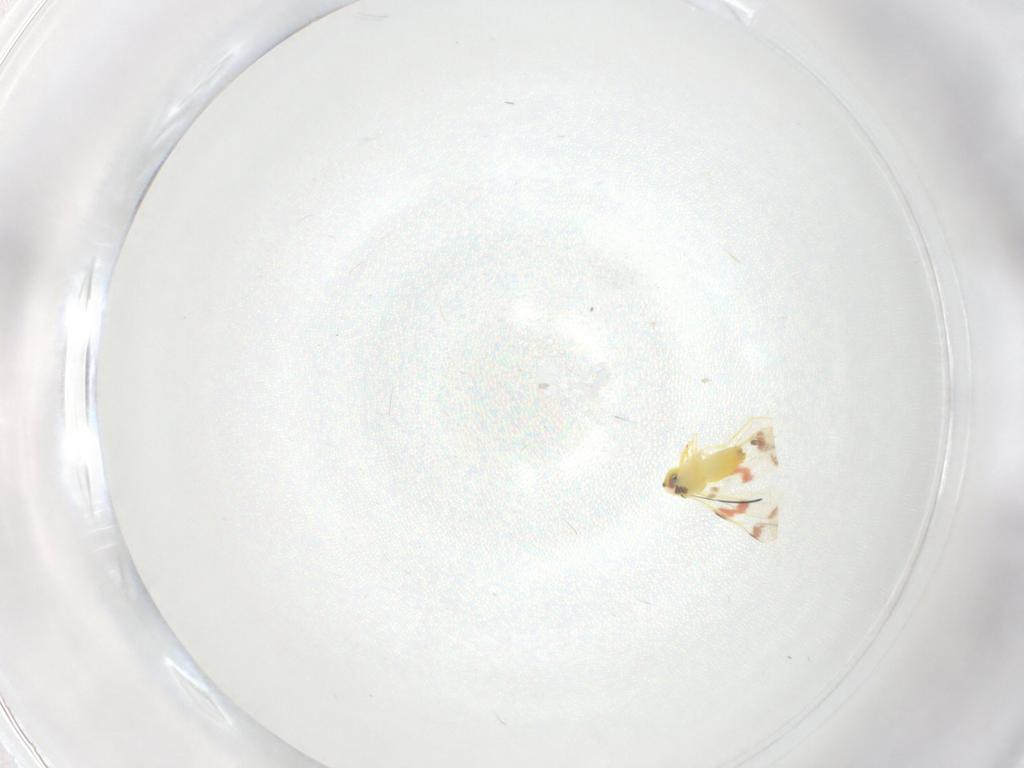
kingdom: Animalia
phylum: Arthropoda
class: Insecta
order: Hemiptera
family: Aleyrodidae
